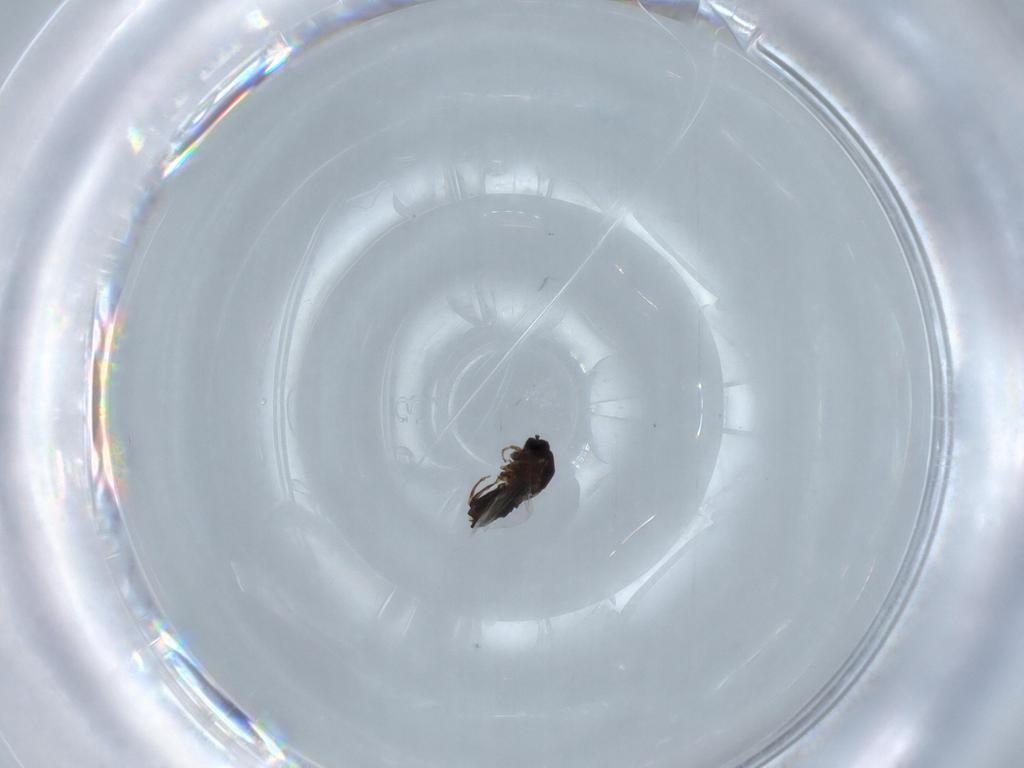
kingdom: Animalia
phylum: Arthropoda
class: Insecta
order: Diptera
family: Scatopsidae
